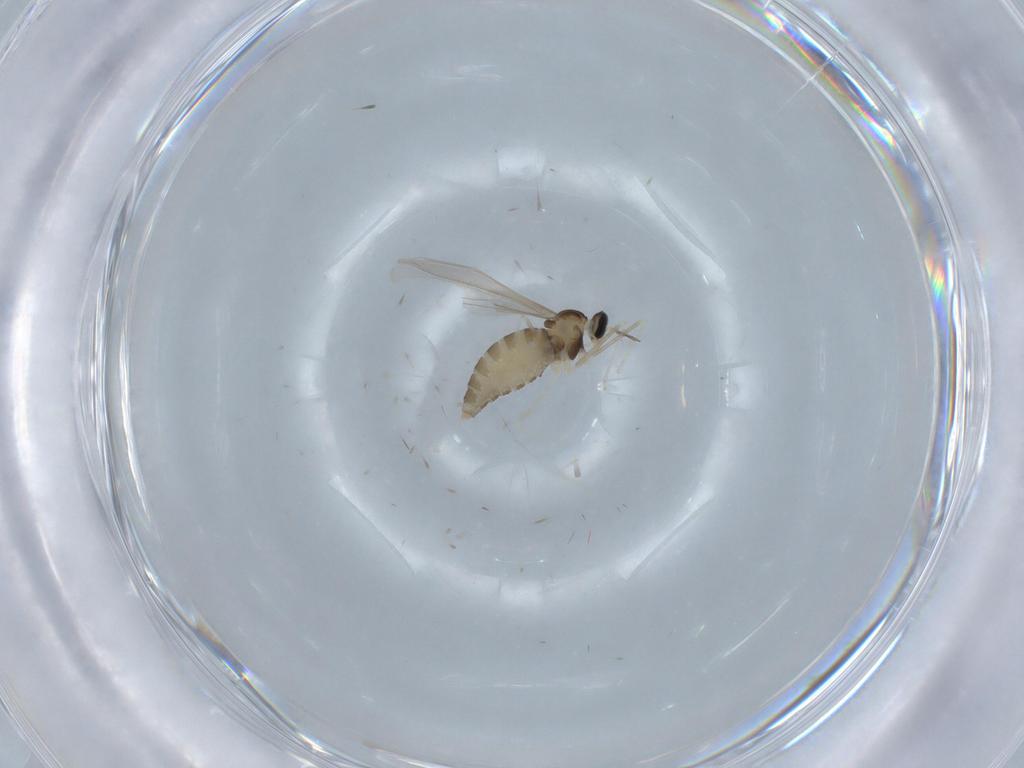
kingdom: Animalia
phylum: Arthropoda
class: Insecta
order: Diptera
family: Cecidomyiidae
